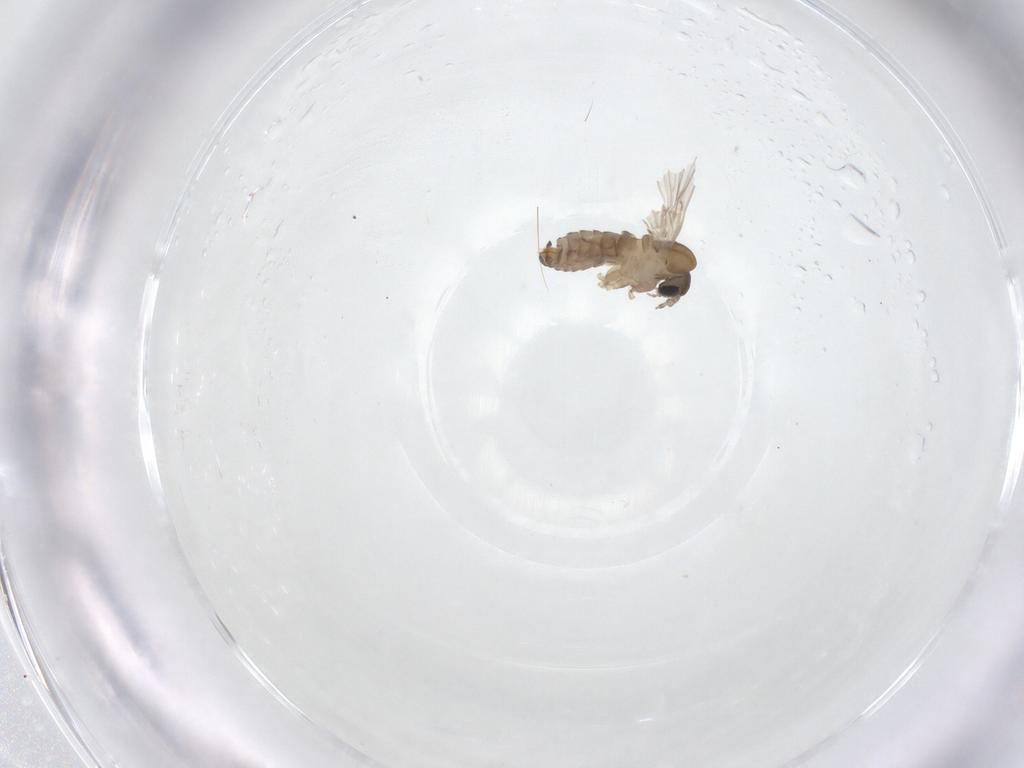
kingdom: Animalia
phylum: Arthropoda
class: Insecta
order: Diptera
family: Psychodidae
